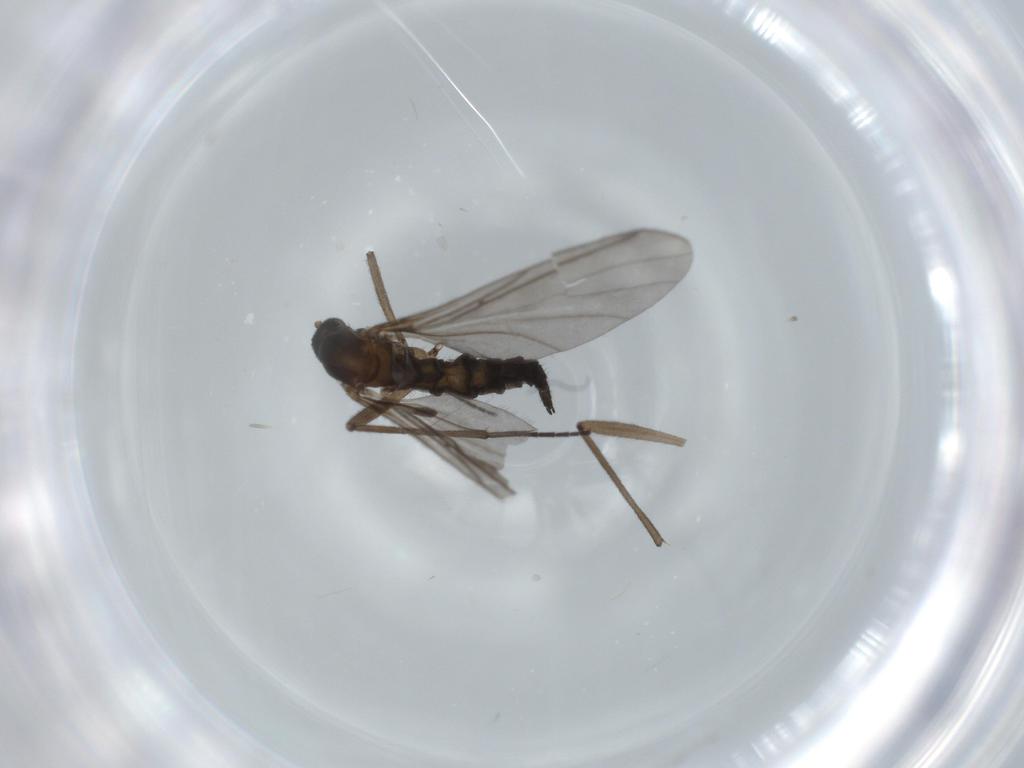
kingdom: Animalia
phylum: Arthropoda
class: Insecta
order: Diptera
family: Sciaridae
